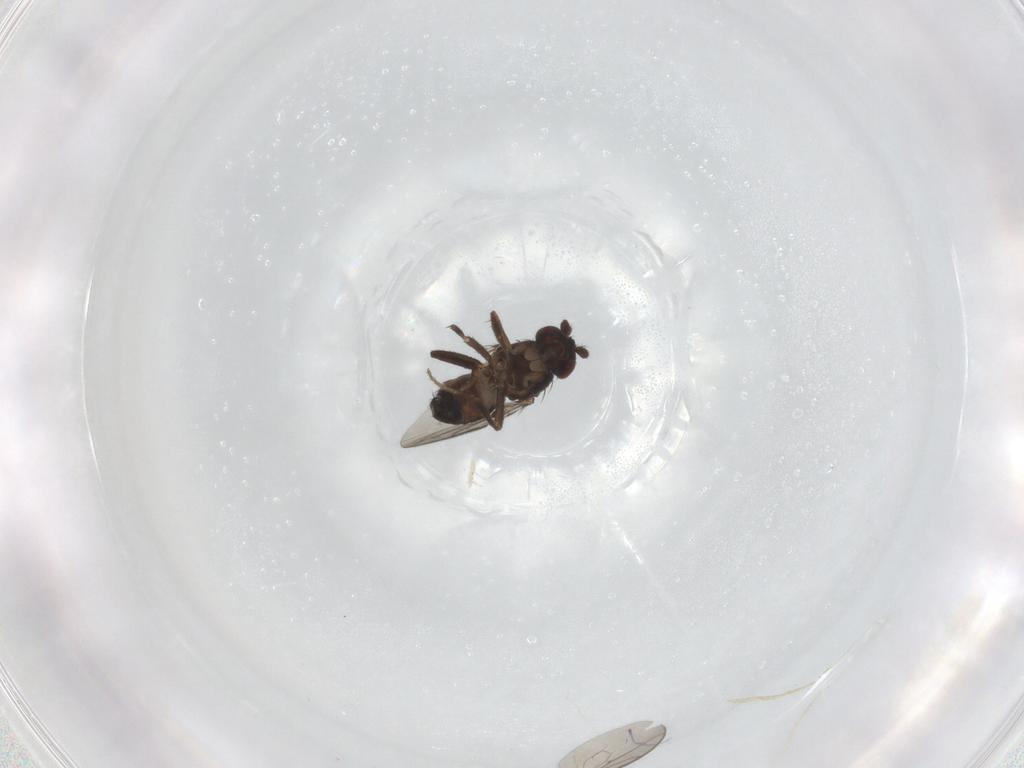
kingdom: Animalia
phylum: Arthropoda
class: Insecta
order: Diptera
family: Sphaeroceridae
